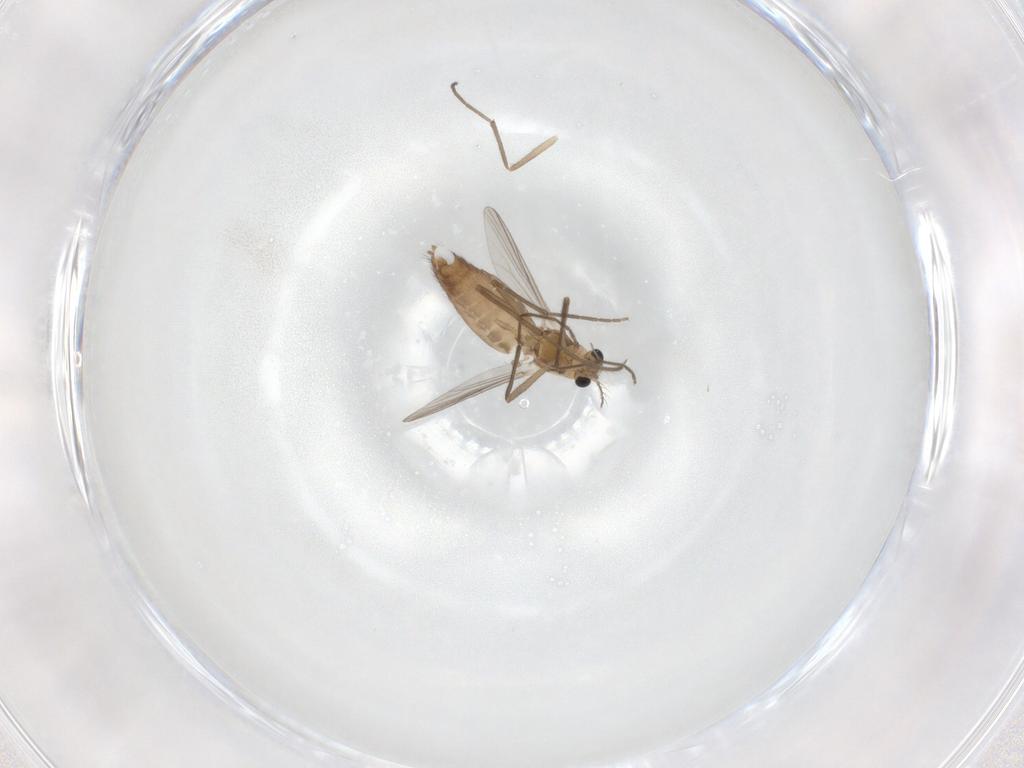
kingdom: Animalia
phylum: Arthropoda
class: Insecta
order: Diptera
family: Chironomidae
